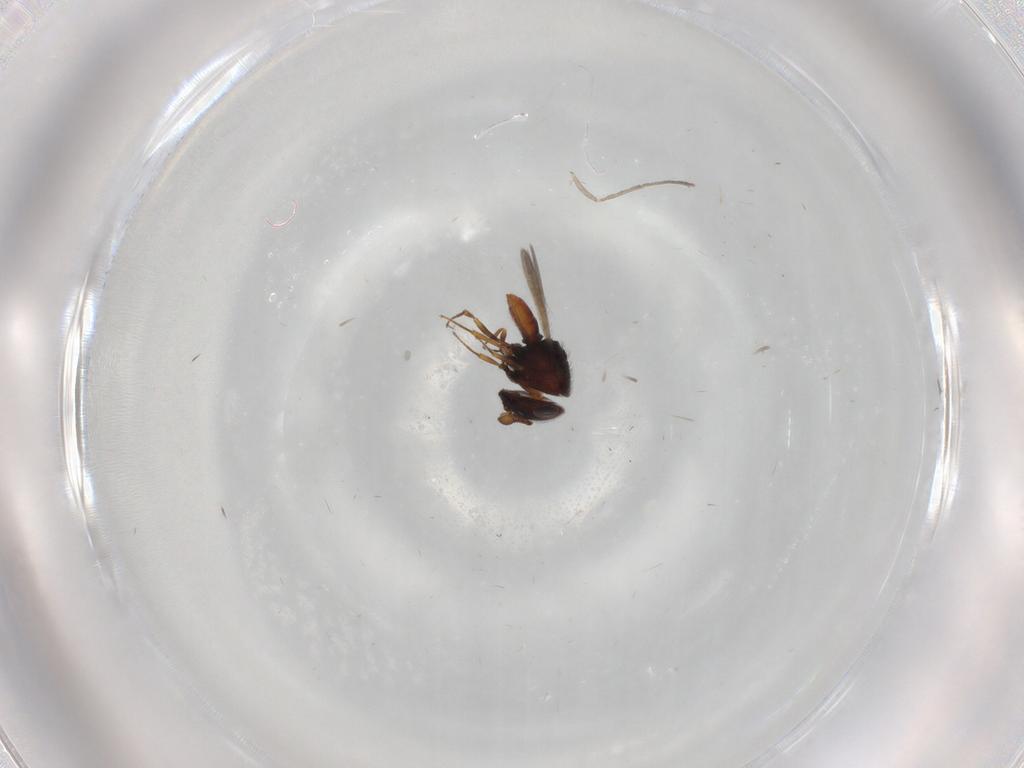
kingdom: Animalia
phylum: Arthropoda
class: Insecta
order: Hymenoptera
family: Scelionidae
